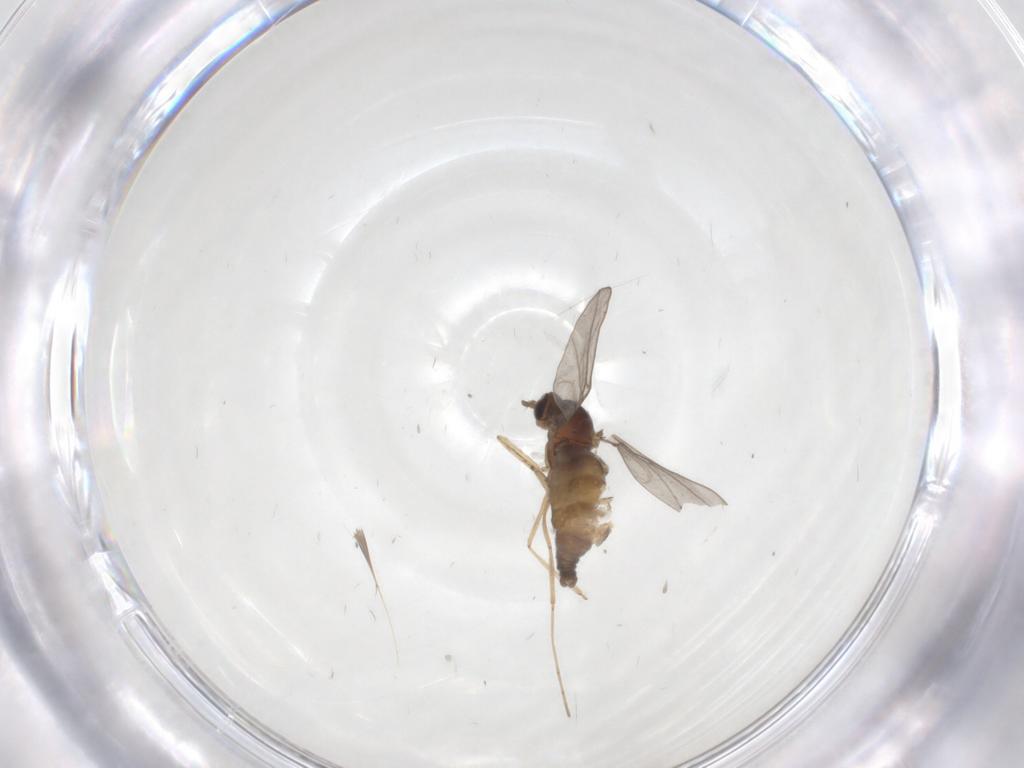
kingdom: Animalia
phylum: Arthropoda
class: Insecta
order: Diptera
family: Cecidomyiidae
